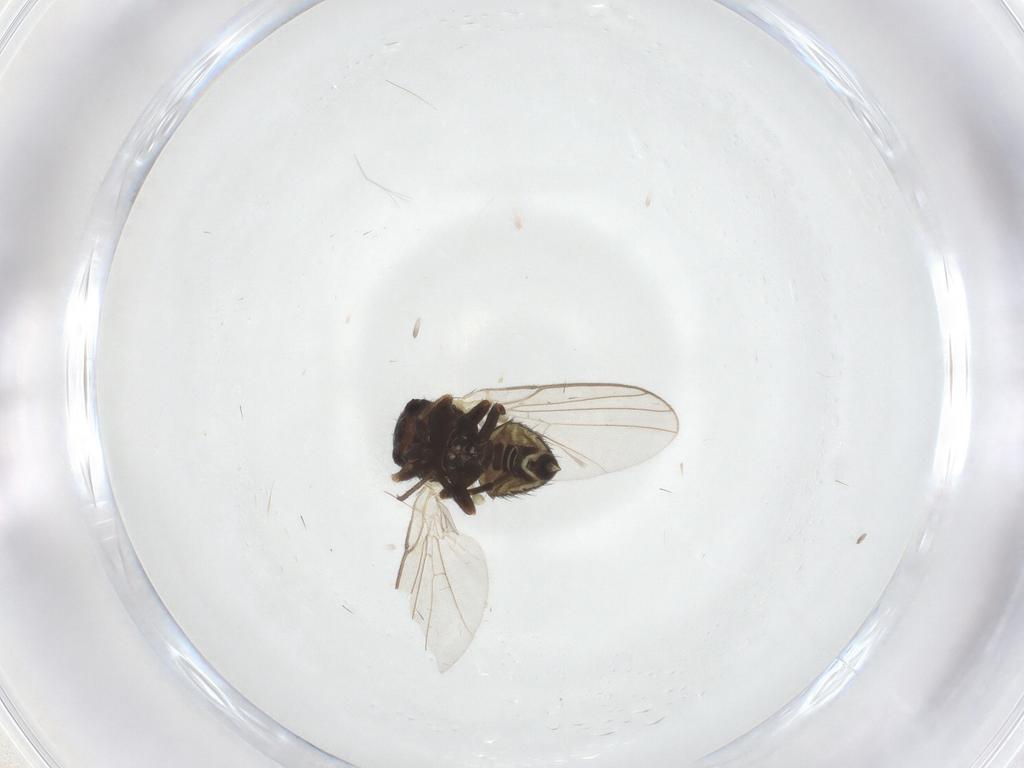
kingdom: Animalia
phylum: Arthropoda
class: Insecta
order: Diptera
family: Agromyzidae
